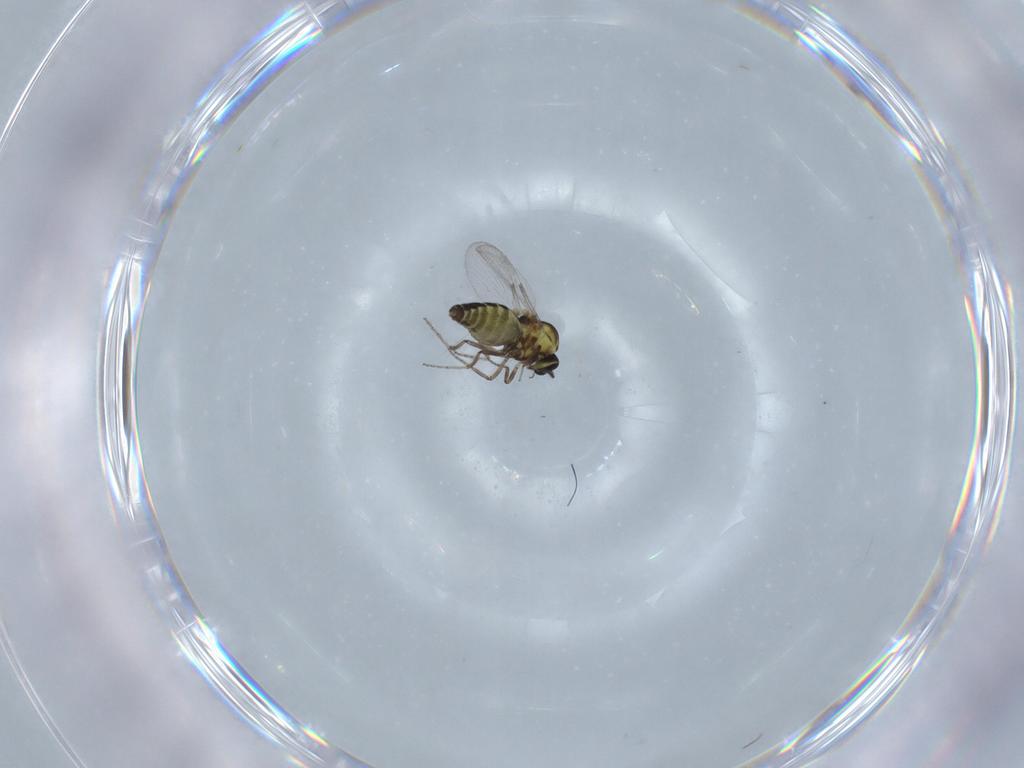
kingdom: Animalia
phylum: Arthropoda
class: Insecta
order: Diptera
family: Ceratopogonidae
